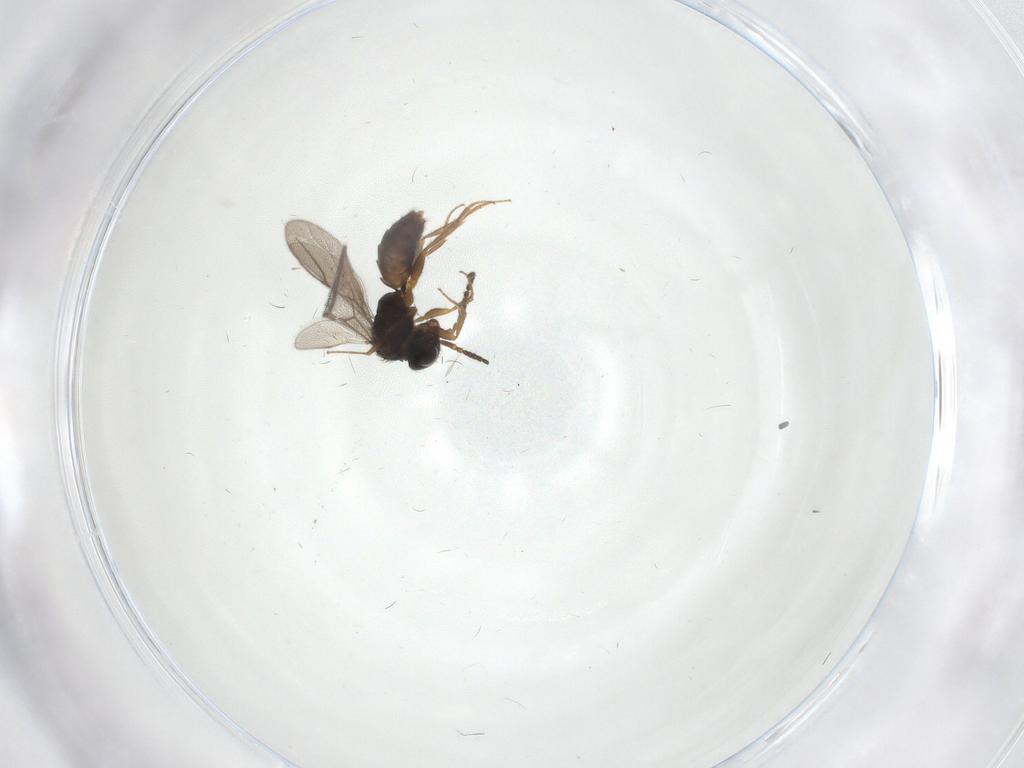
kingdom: Animalia
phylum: Arthropoda
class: Insecta
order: Hymenoptera
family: Bethylidae
